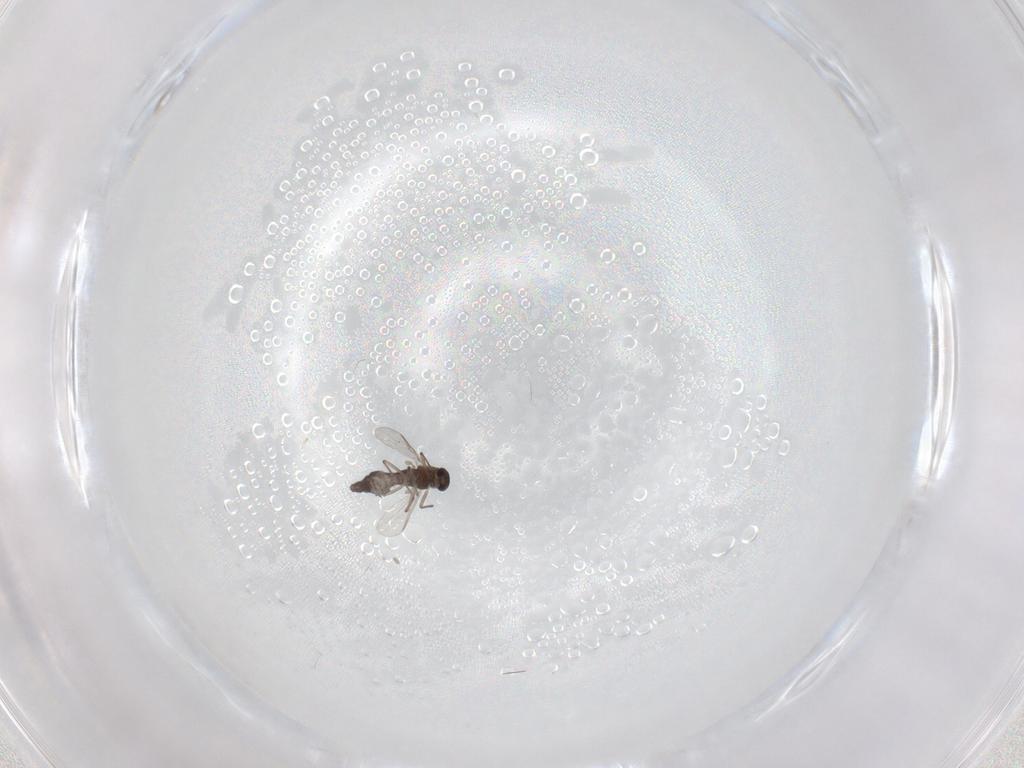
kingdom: Animalia
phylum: Arthropoda
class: Insecta
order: Diptera
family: Chironomidae
